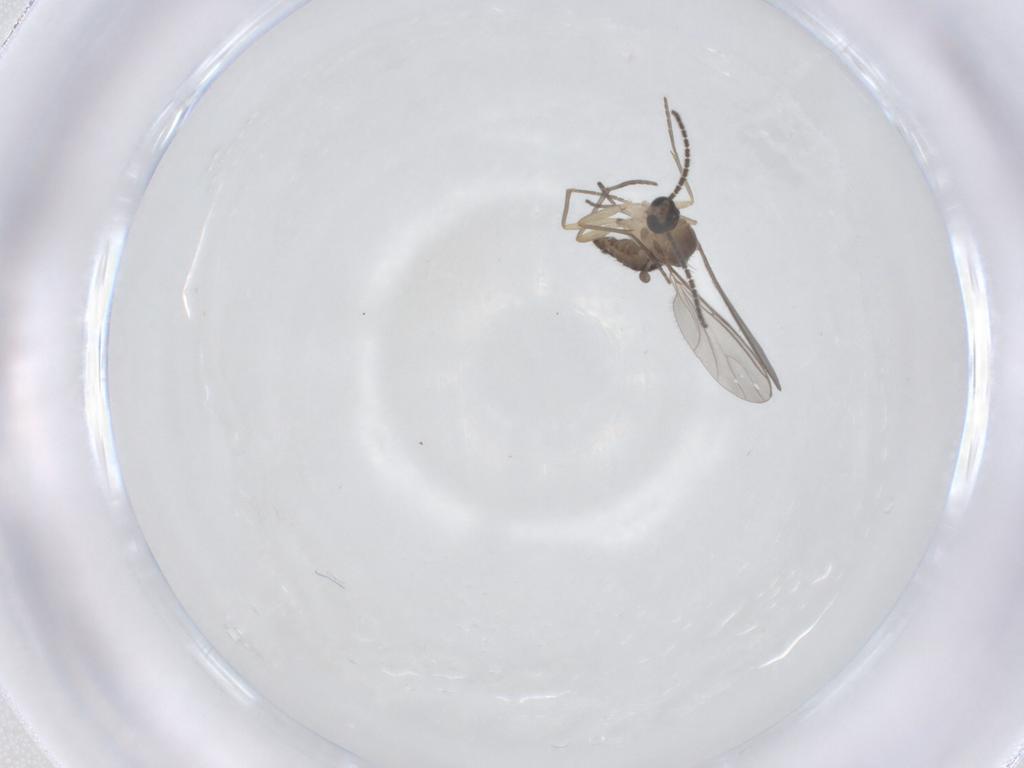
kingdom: Animalia
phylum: Arthropoda
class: Insecta
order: Diptera
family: Sciaridae
